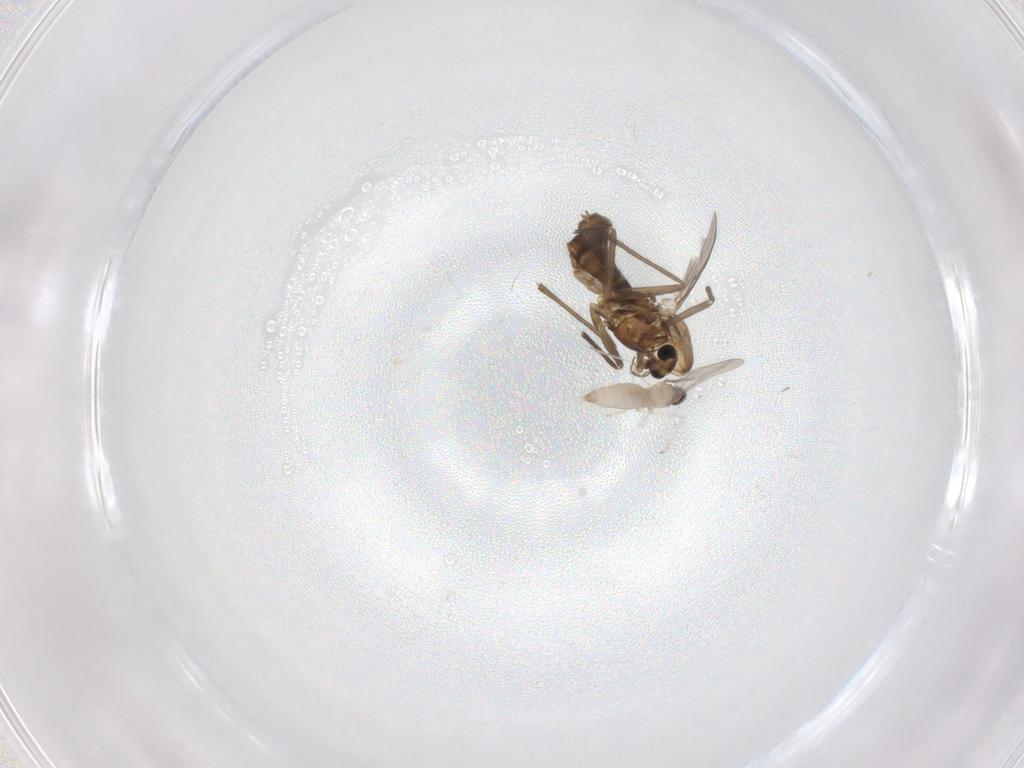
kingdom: Animalia
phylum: Arthropoda
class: Insecta
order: Diptera
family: Chironomidae
